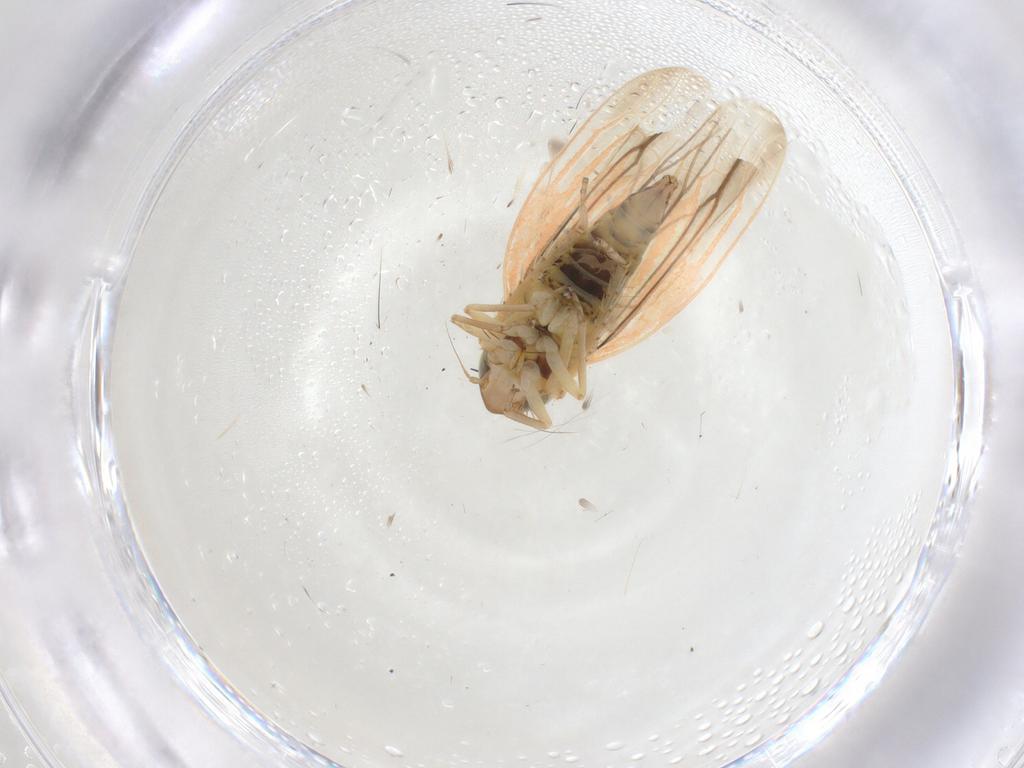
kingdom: Animalia
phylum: Arthropoda
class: Insecta
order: Hemiptera
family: Cicadellidae
